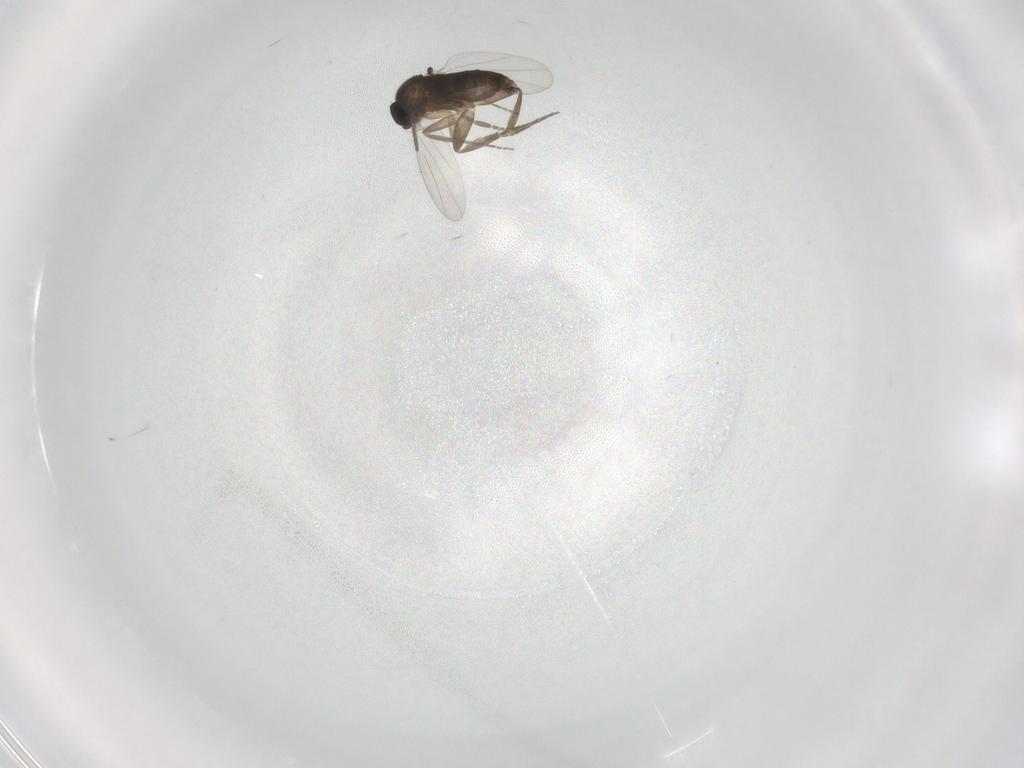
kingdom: Animalia
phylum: Arthropoda
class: Insecta
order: Diptera
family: Phoridae
